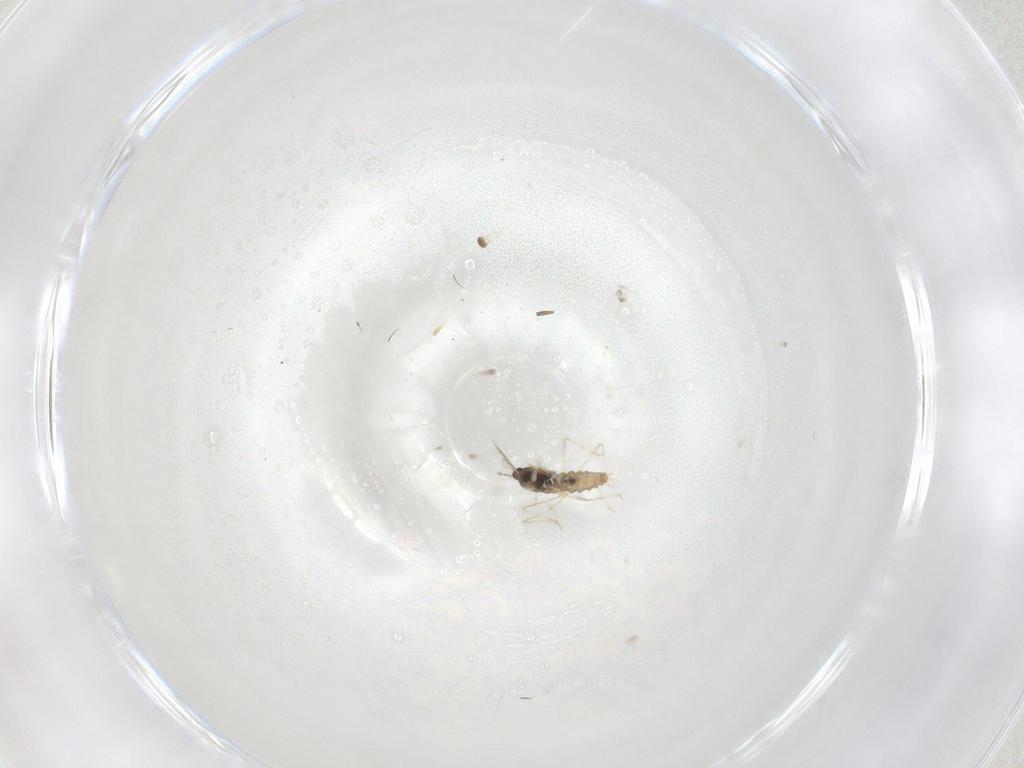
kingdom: Animalia
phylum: Arthropoda
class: Insecta
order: Diptera
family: Cecidomyiidae
